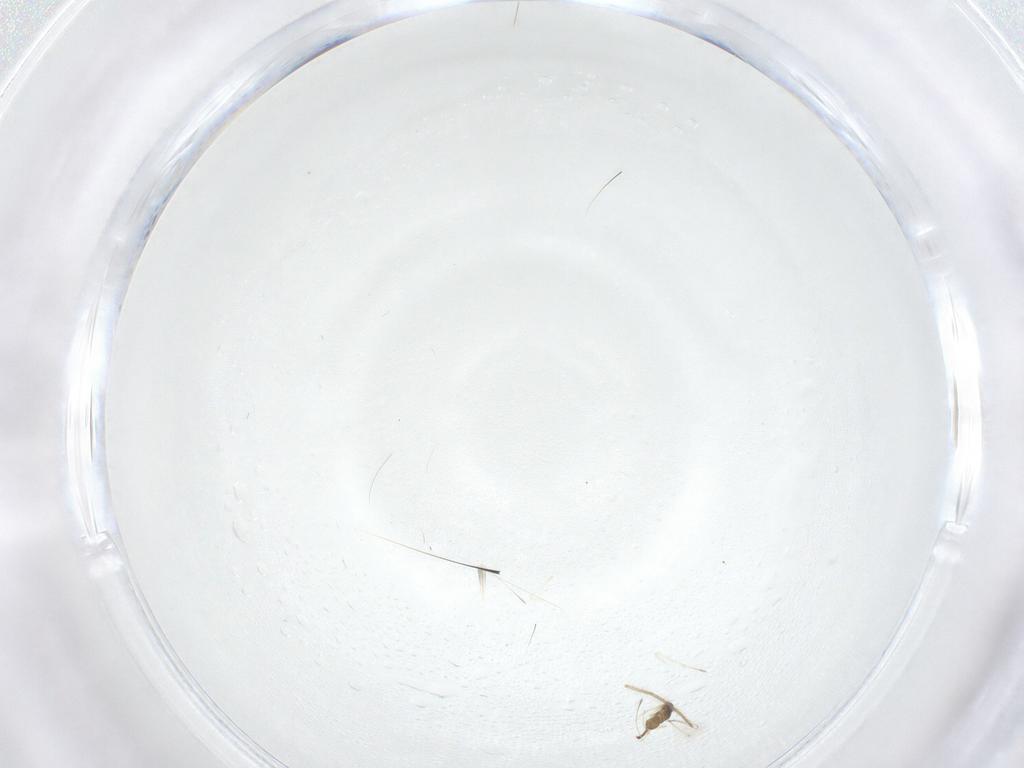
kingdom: Animalia
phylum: Arthropoda
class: Insecta
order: Diptera
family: Chironomidae
